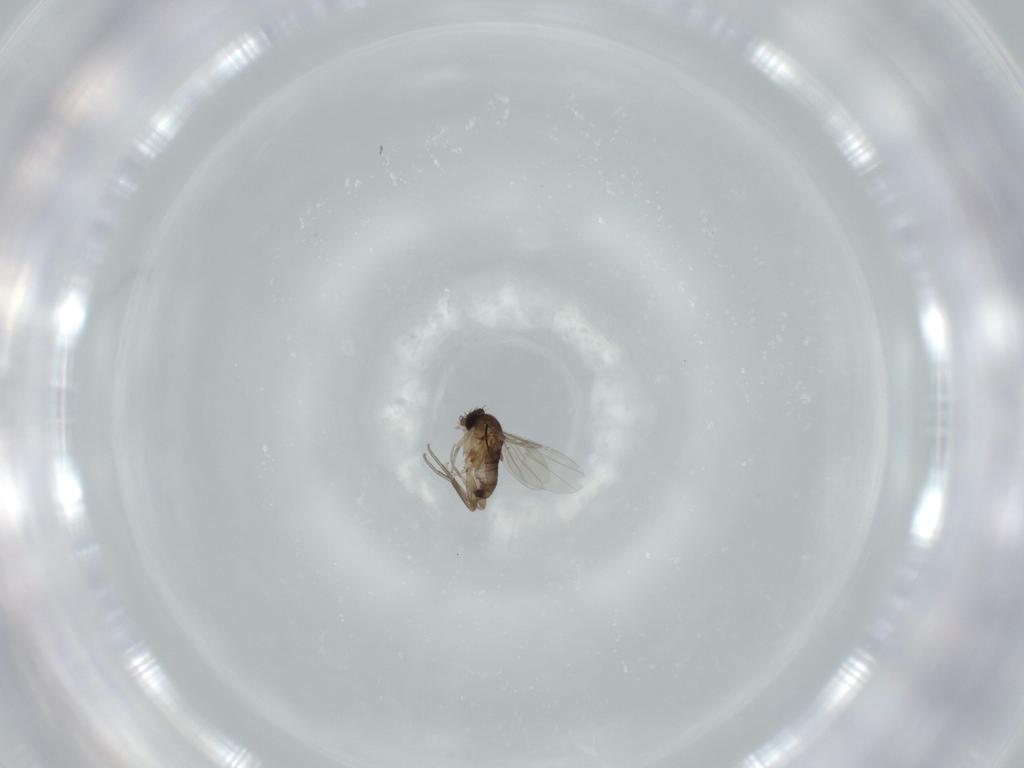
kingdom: Animalia
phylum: Arthropoda
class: Insecta
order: Diptera
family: Phoridae
